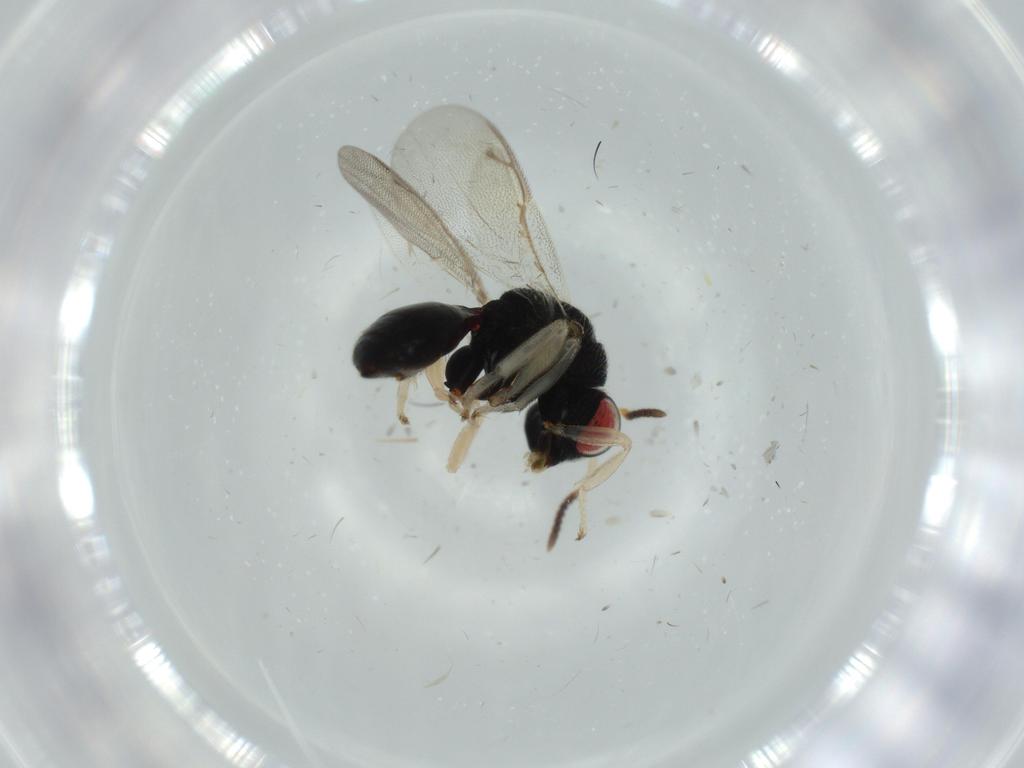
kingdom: Animalia
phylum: Arthropoda
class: Insecta
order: Hymenoptera
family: Eurytomidae
